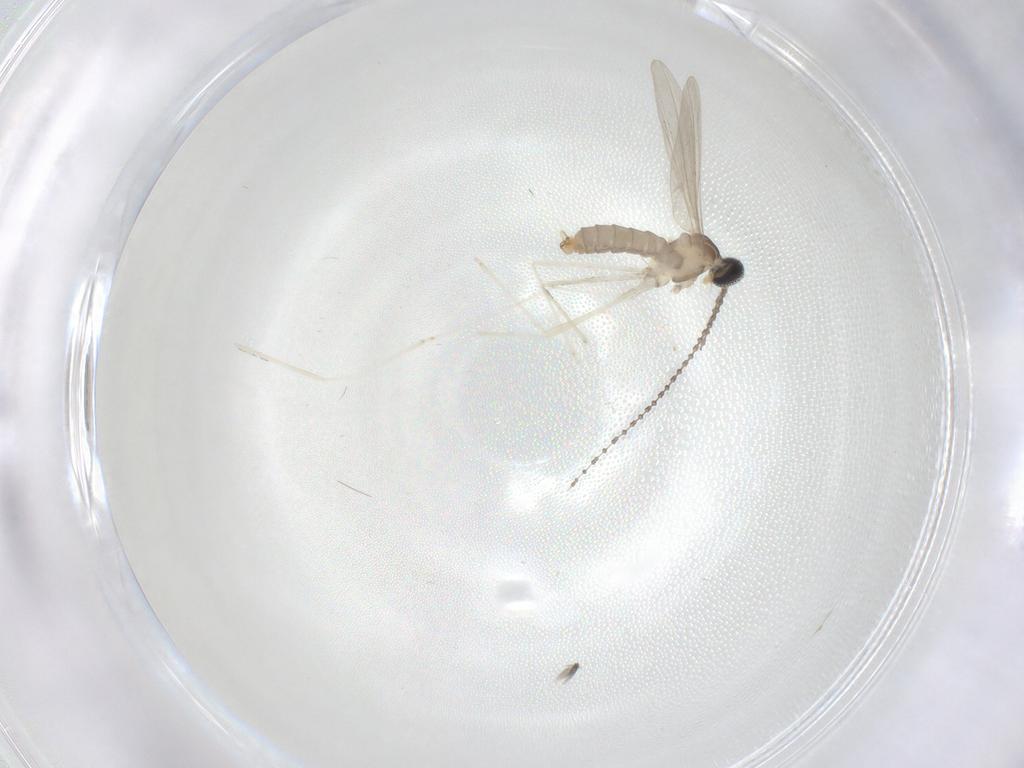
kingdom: Animalia
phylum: Arthropoda
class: Insecta
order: Diptera
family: Cecidomyiidae
